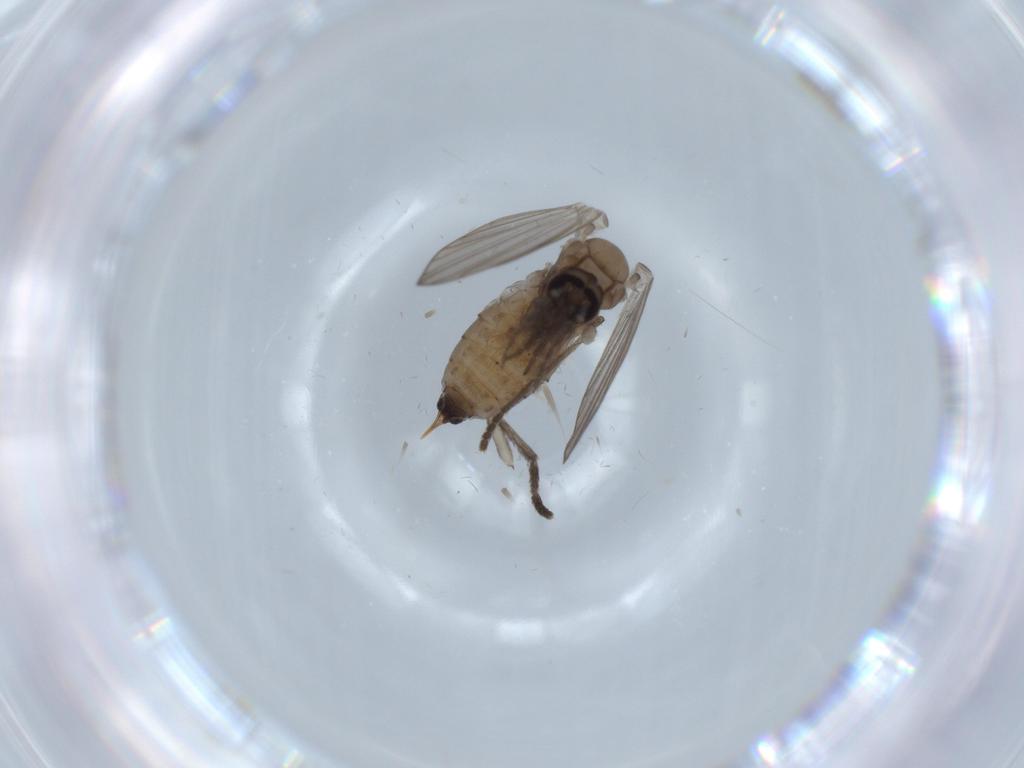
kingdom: Animalia
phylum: Arthropoda
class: Insecta
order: Diptera
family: Psychodidae
